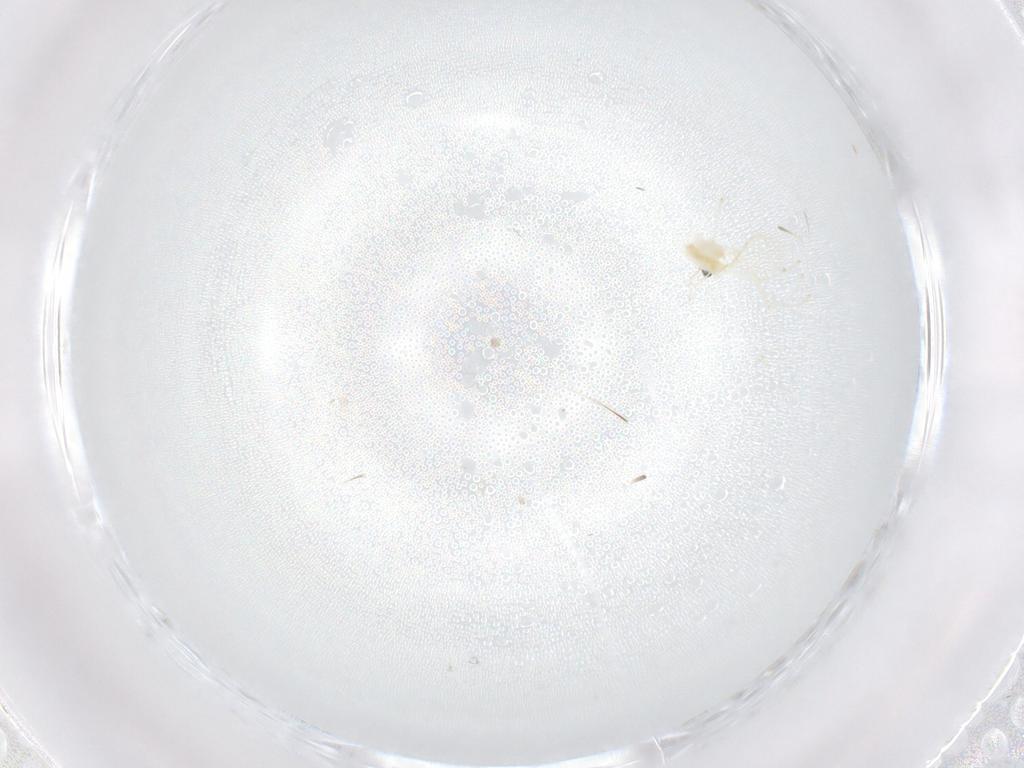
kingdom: Animalia
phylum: Arthropoda
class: Insecta
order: Diptera
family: Cecidomyiidae
